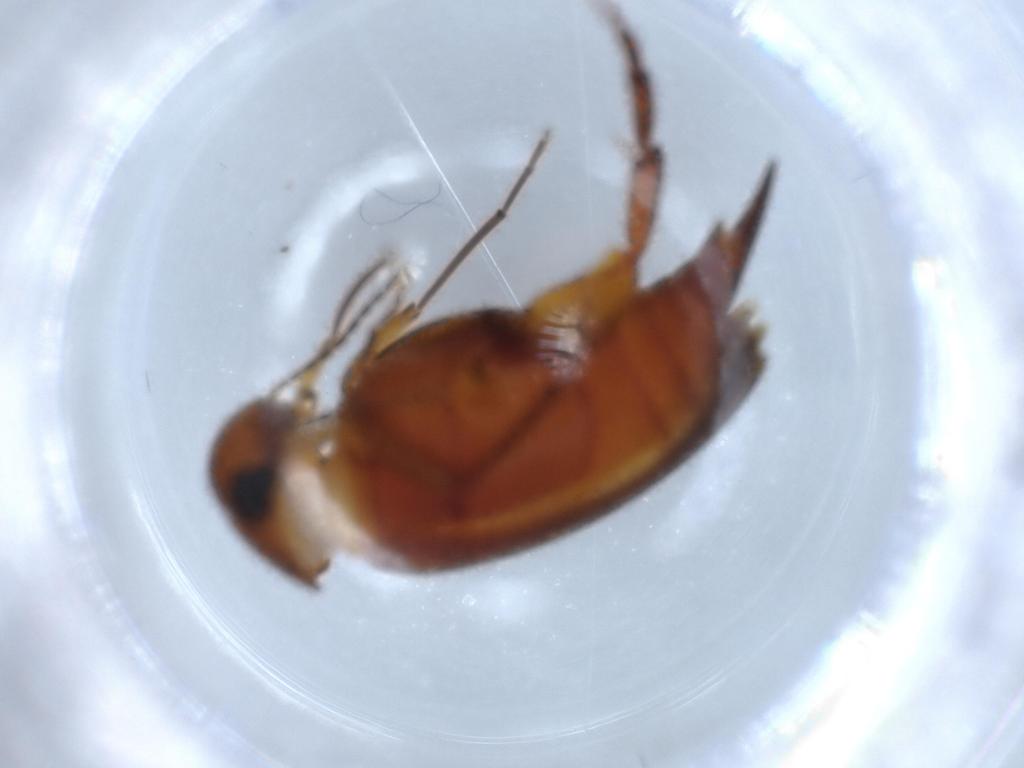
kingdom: Animalia
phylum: Arthropoda
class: Insecta
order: Coleoptera
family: Mordellidae
